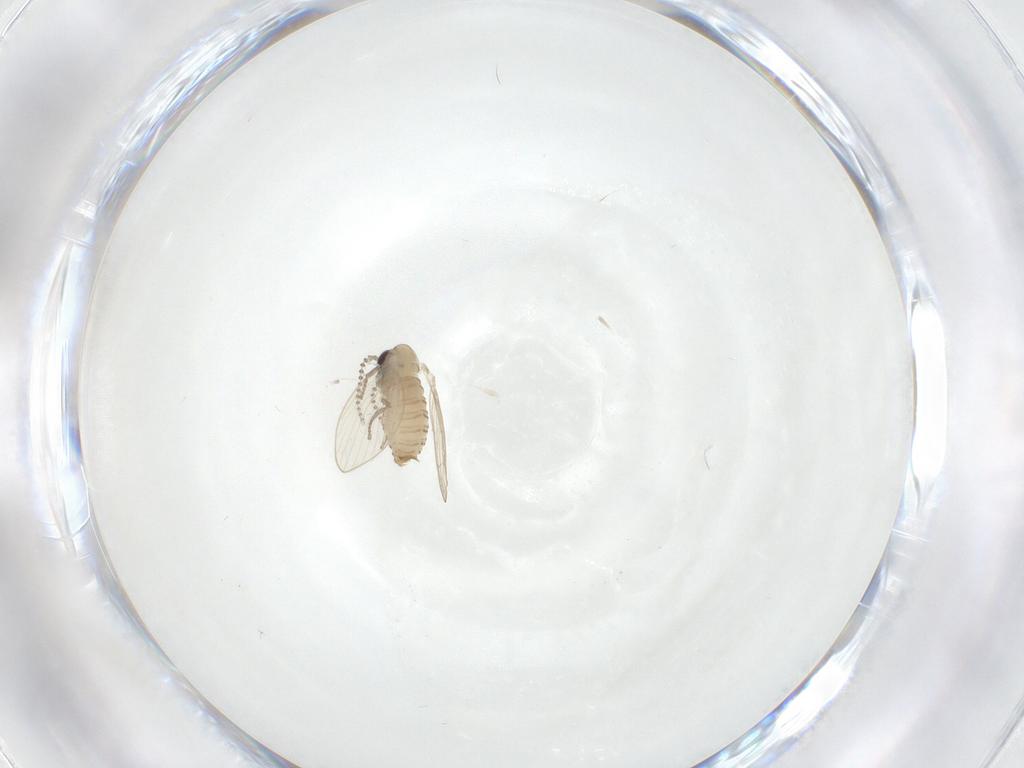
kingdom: Animalia
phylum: Arthropoda
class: Insecta
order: Diptera
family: Psychodidae
